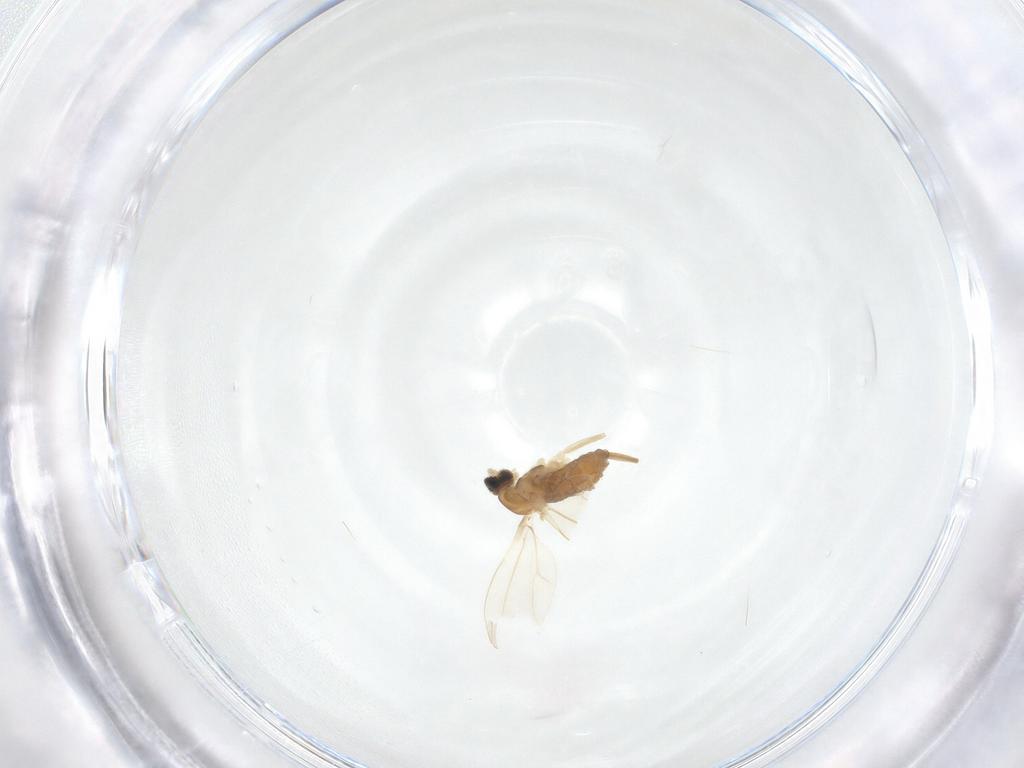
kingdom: Animalia
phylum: Arthropoda
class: Insecta
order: Diptera
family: Cecidomyiidae
